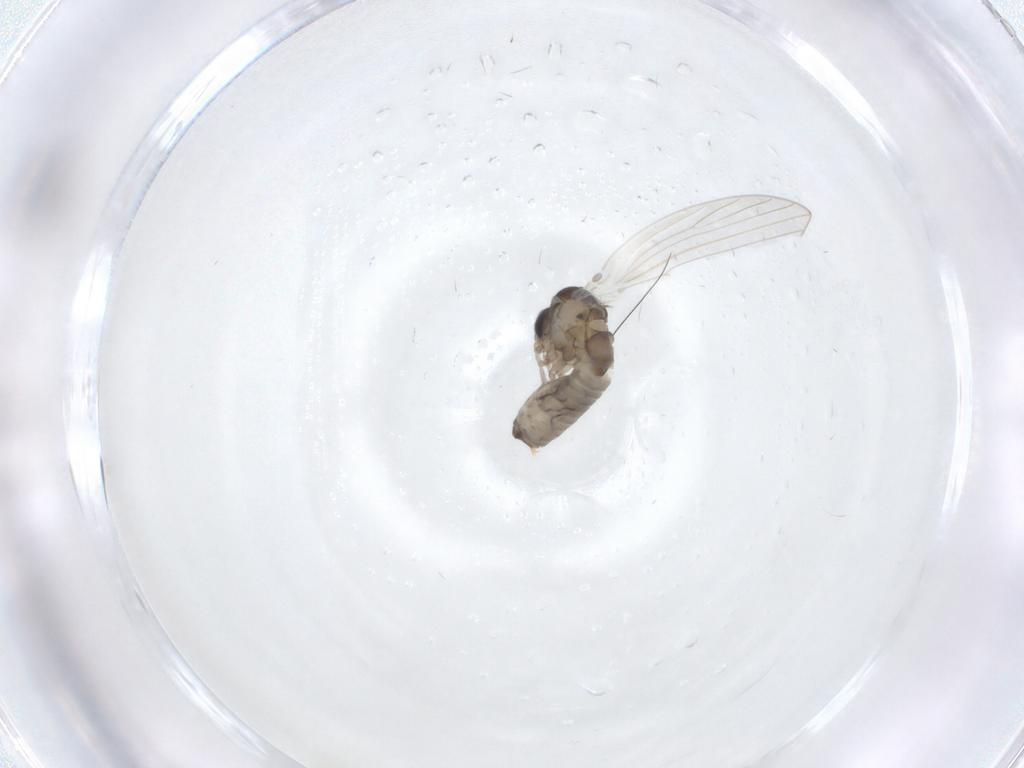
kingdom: Animalia
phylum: Arthropoda
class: Insecta
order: Diptera
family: Psychodidae
